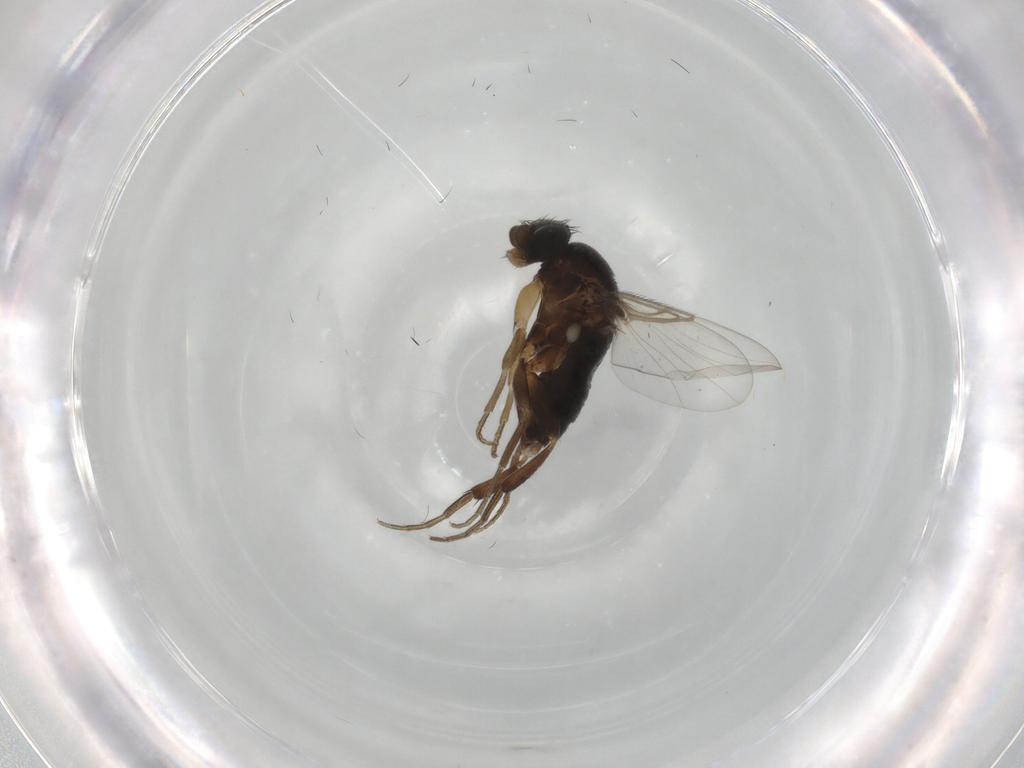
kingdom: Animalia
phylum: Arthropoda
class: Insecta
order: Diptera
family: Phoridae
